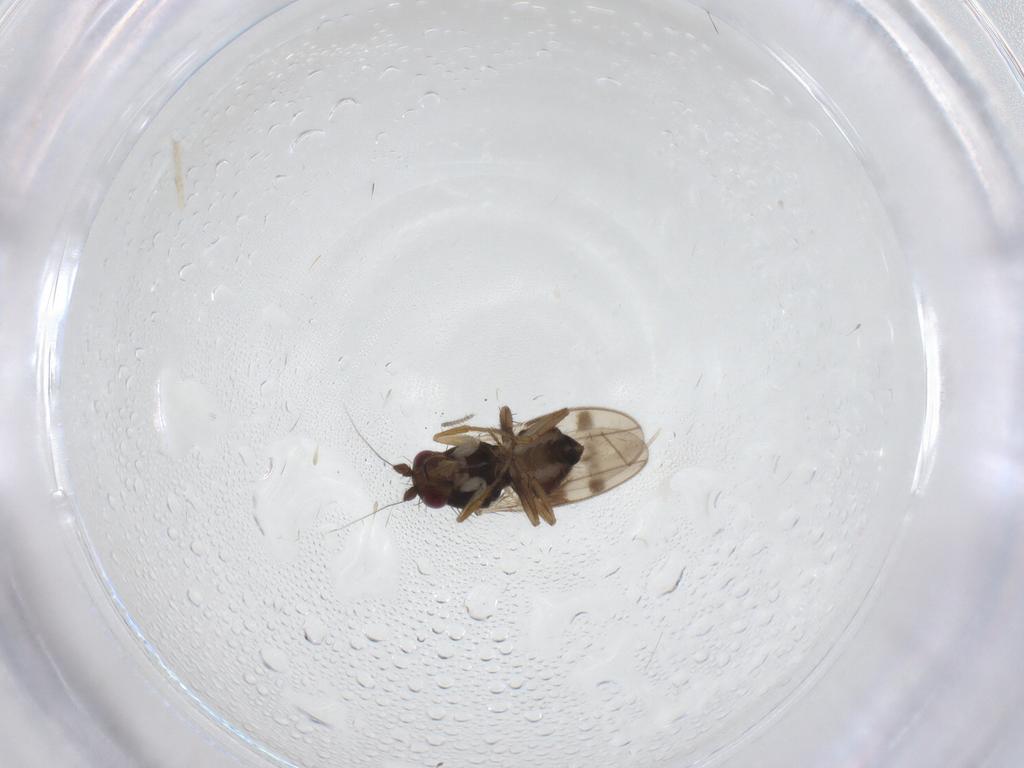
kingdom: Animalia
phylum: Arthropoda
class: Insecta
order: Diptera
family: Sphaeroceridae
